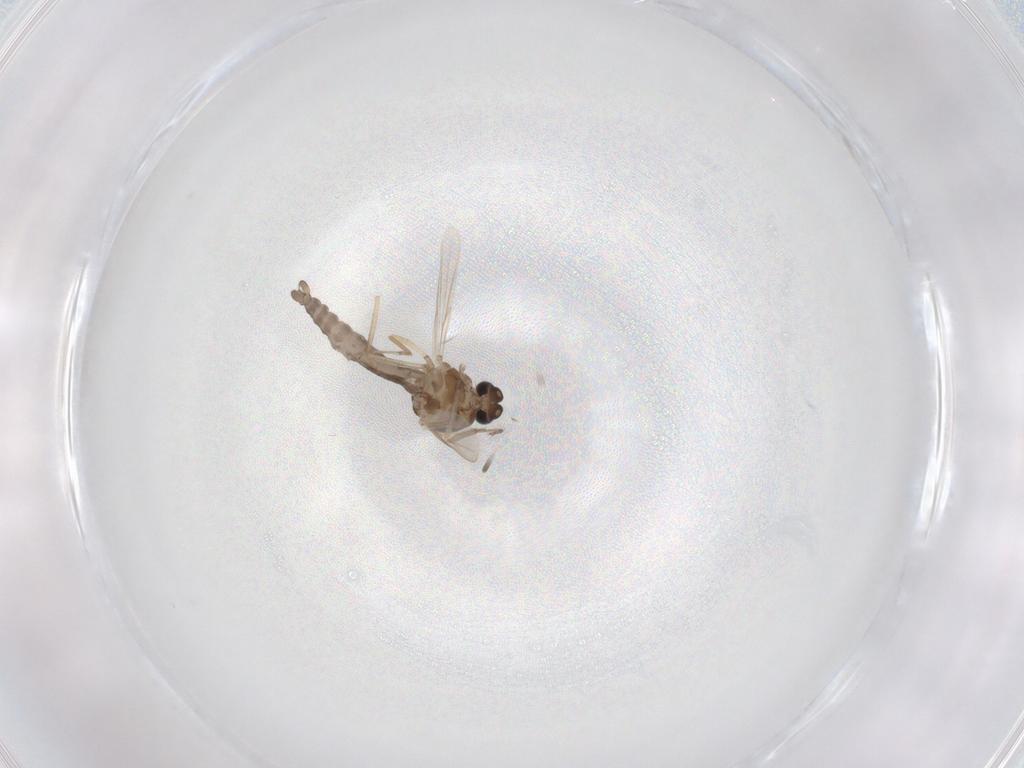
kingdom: Animalia
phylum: Arthropoda
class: Insecta
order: Diptera
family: Ceratopogonidae
